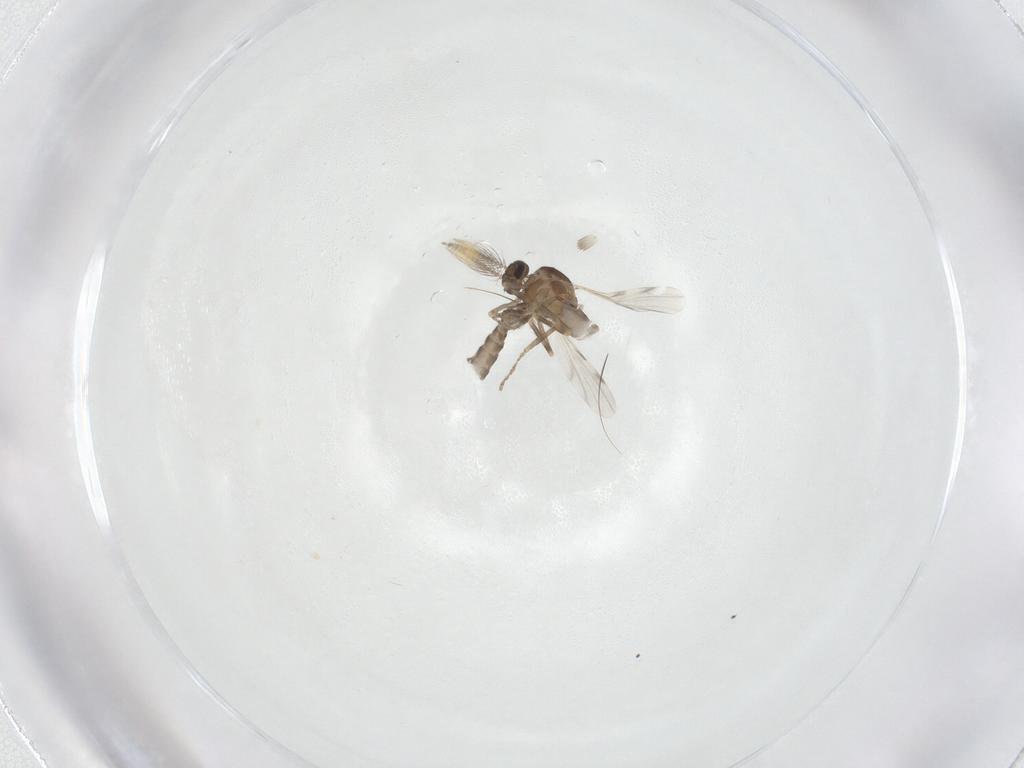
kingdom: Animalia
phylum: Arthropoda
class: Insecta
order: Diptera
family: Ceratopogonidae
